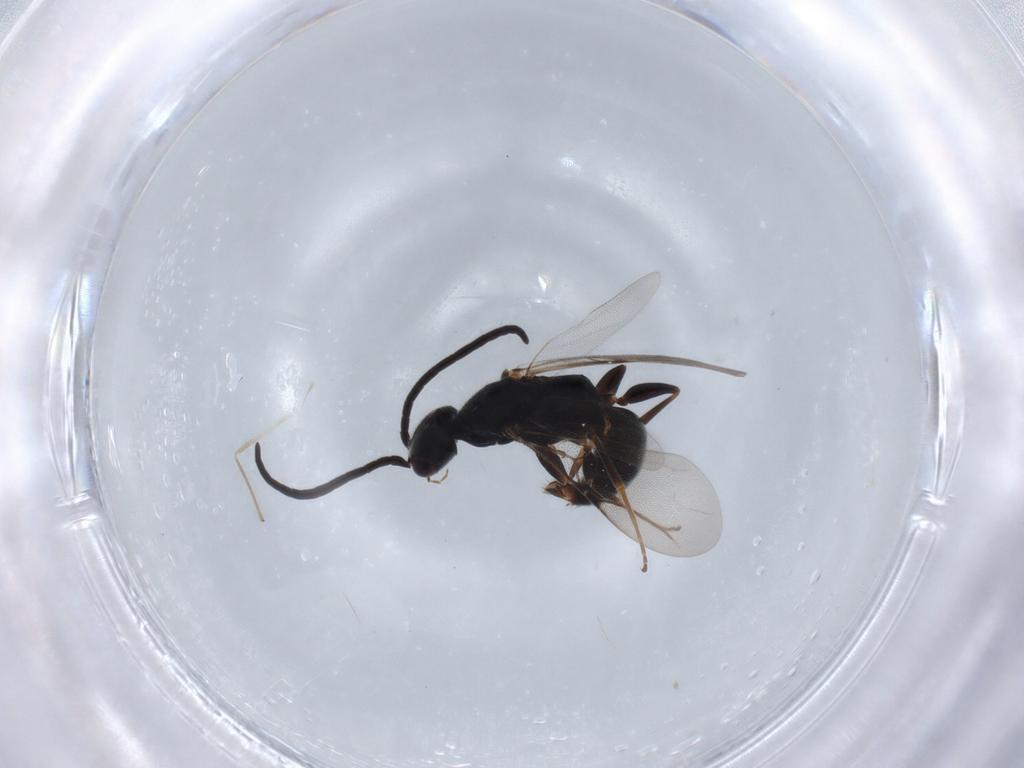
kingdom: Animalia
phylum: Arthropoda
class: Insecta
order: Hymenoptera
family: Bethylidae
